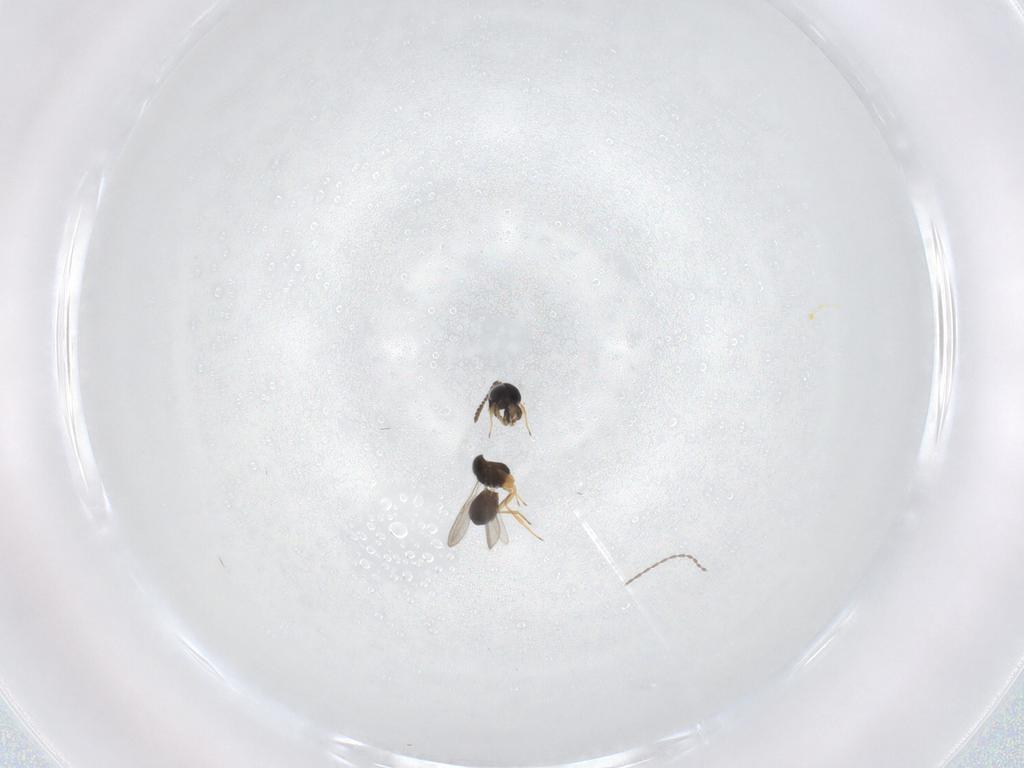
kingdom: Animalia
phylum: Arthropoda
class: Insecta
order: Hymenoptera
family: Scelionidae
